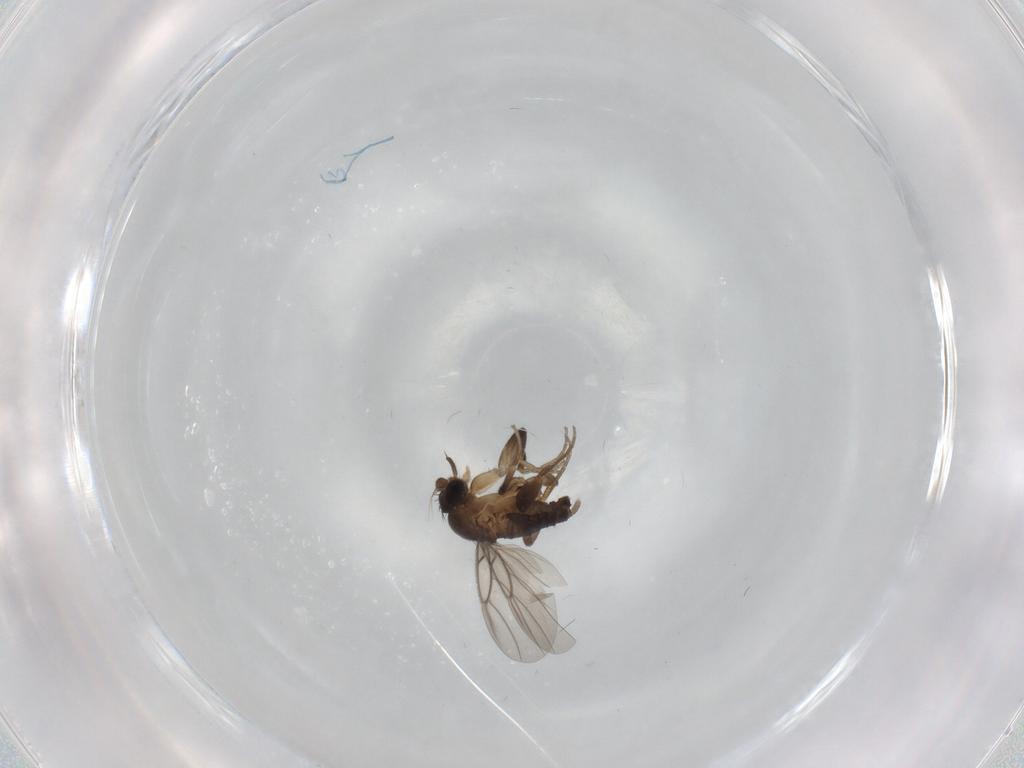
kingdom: Animalia
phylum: Arthropoda
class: Insecta
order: Diptera
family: Phoridae
